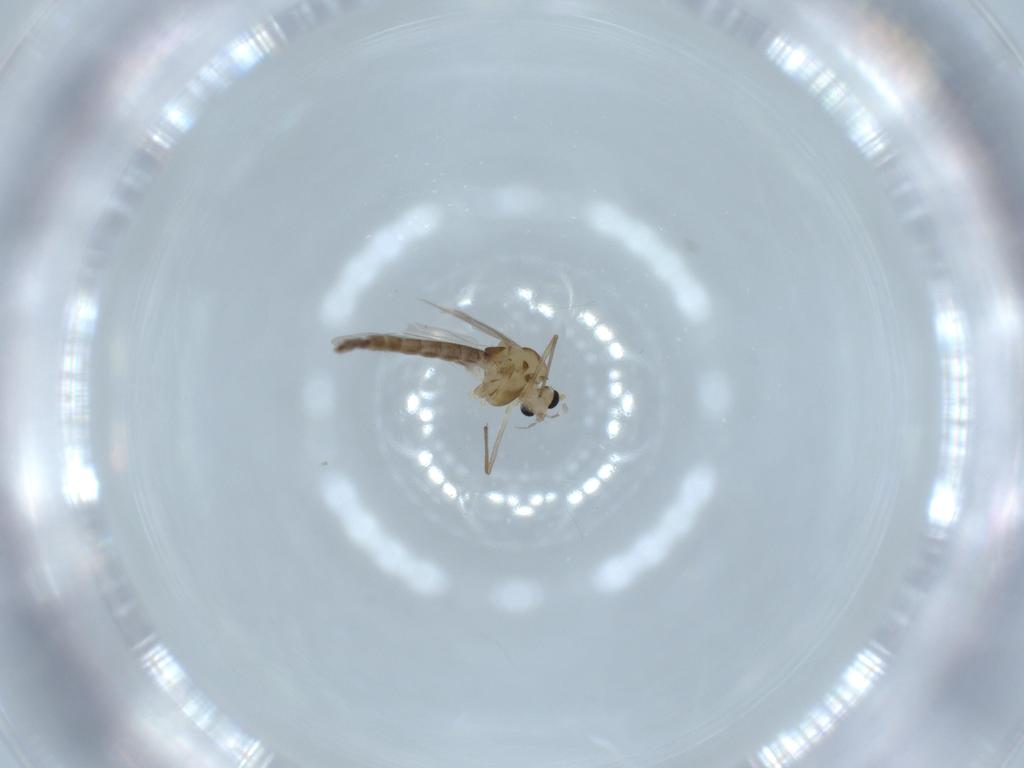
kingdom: Animalia
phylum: Arthropoda
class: Insecta
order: Diptera
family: Chironomidae
